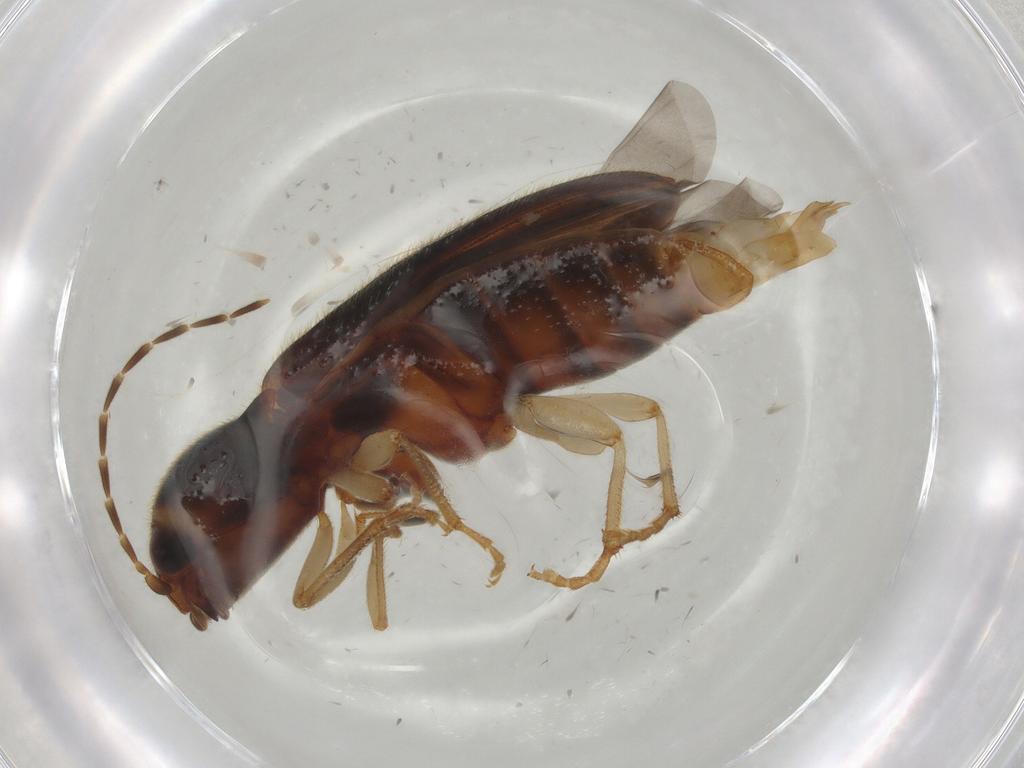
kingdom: Animalia
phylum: Arthropoda
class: Insecta
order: Coleoptera
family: Elateridae
